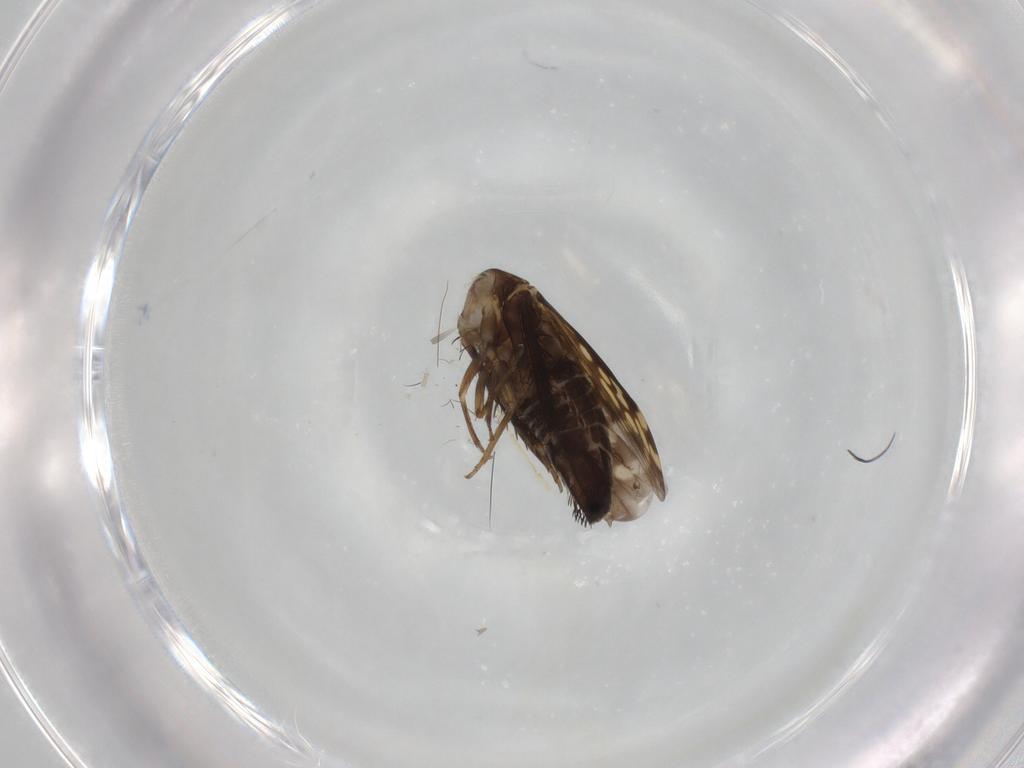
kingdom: Animalia
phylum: Arthropoda
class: Insecta
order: Hemiptera
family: Cicadellidae
